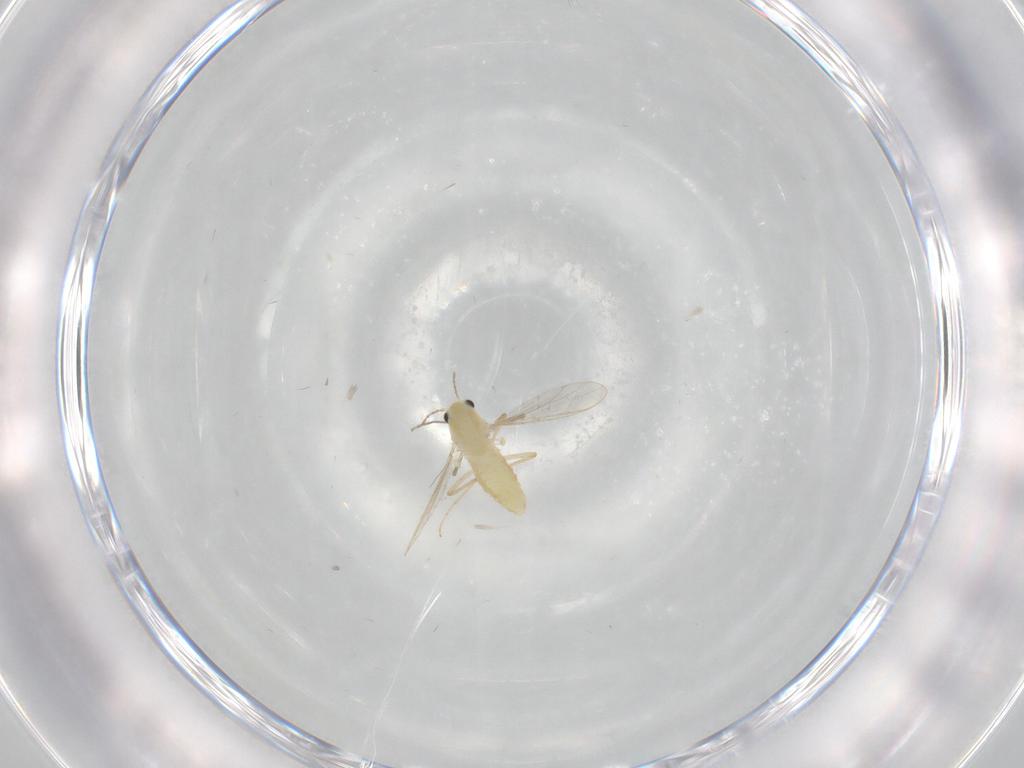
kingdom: Animalia
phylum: Arthropoda
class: Insecta
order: Diptera
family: Chironomidae
